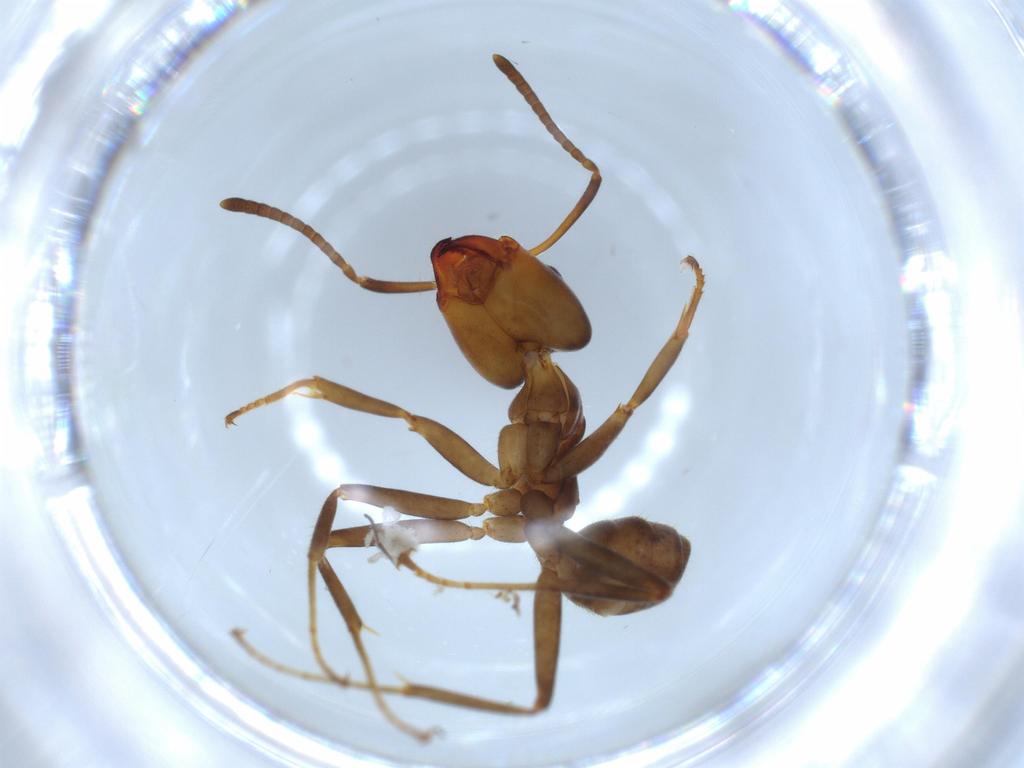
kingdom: Animalia
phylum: Arthropoda
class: Insecta
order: Hymenoptera
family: Formicidae
